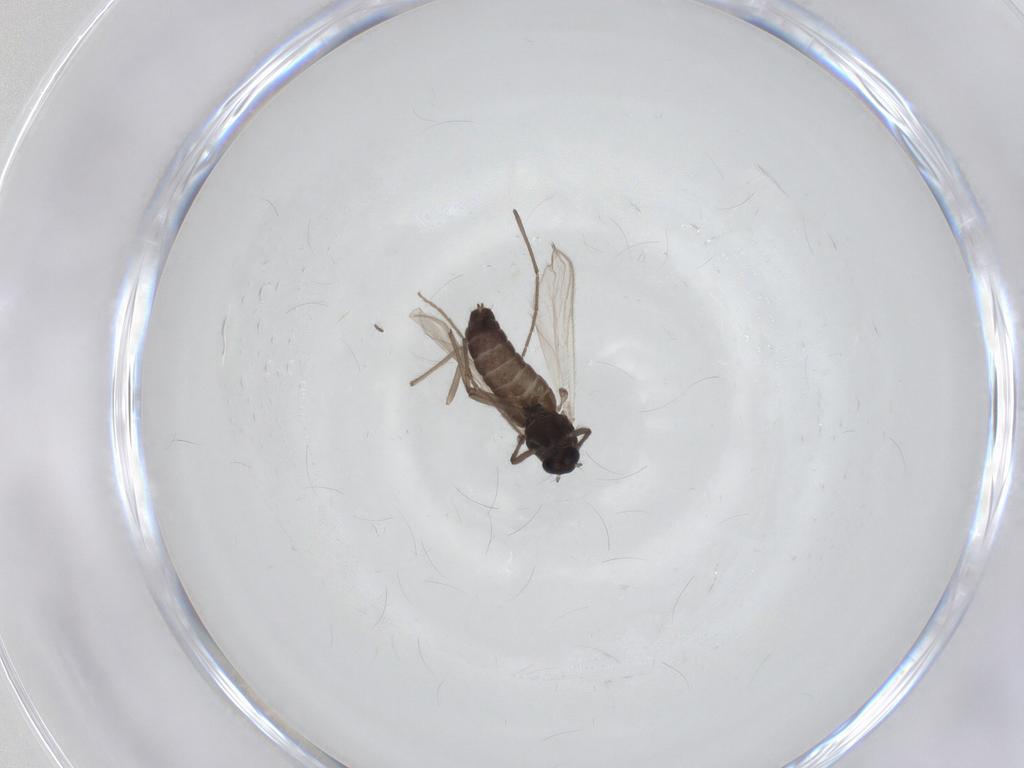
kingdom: Animalia
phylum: Arthropoda
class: Insecta
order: Diptera
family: Chironomidae
